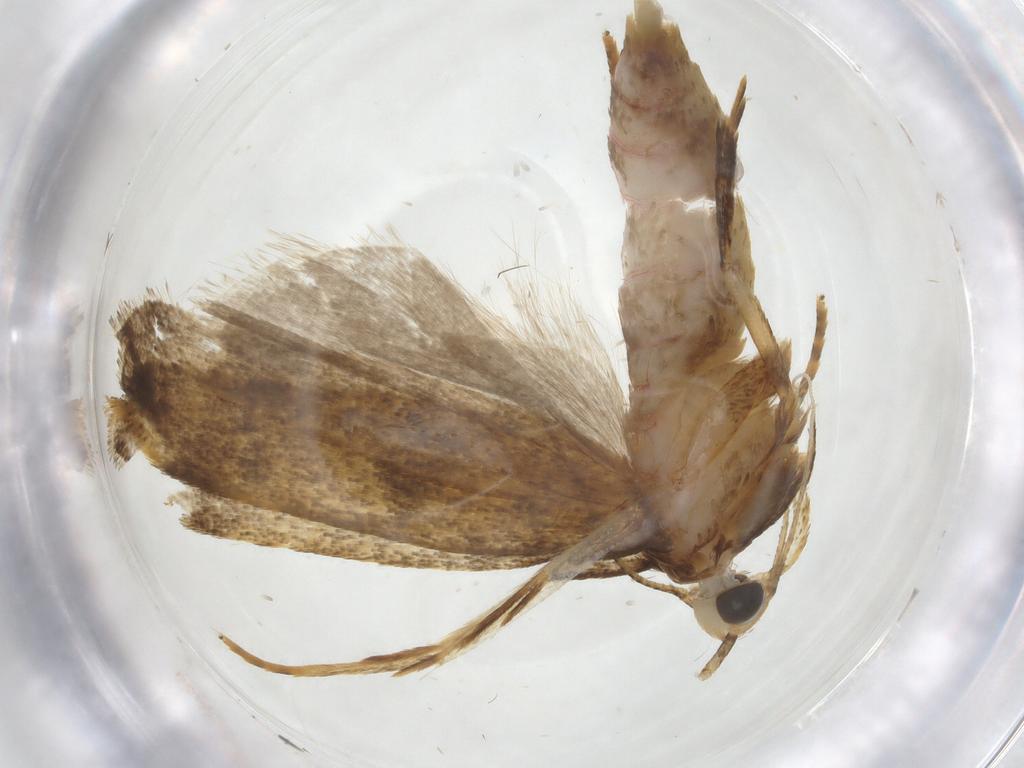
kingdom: Animalia
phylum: Arthropoda
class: Insecta
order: Lepidoptera
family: Autostichidae
